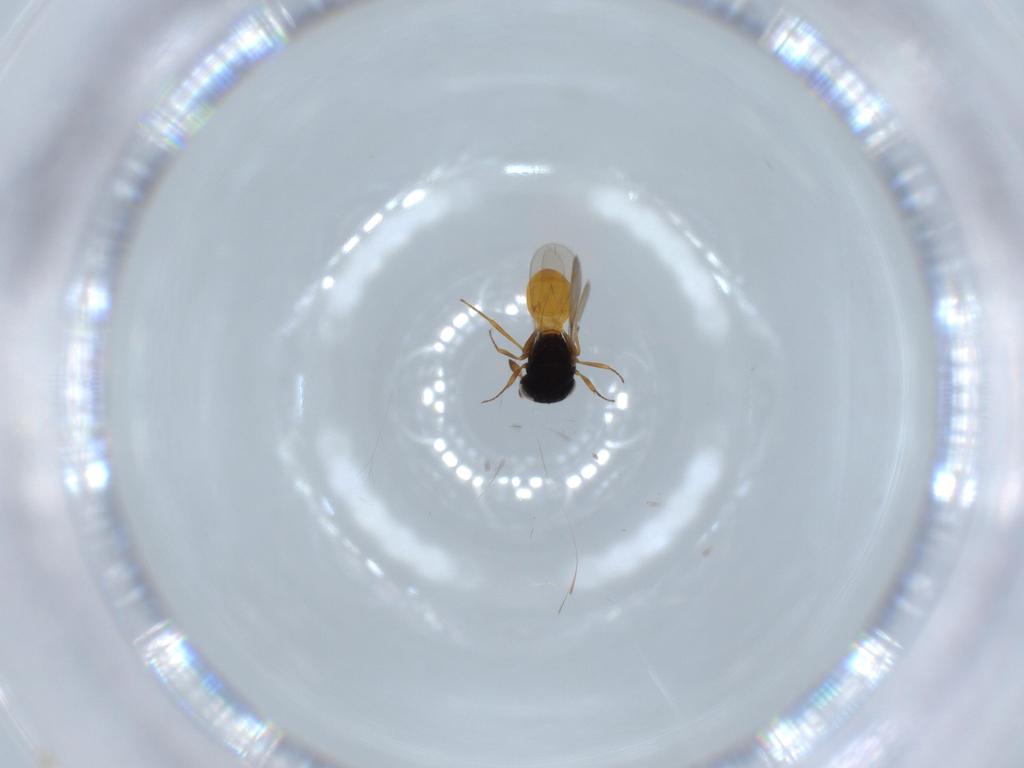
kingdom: Animalia
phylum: Arthropoda
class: Insecta
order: Hymenoptera
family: Scelionidae
